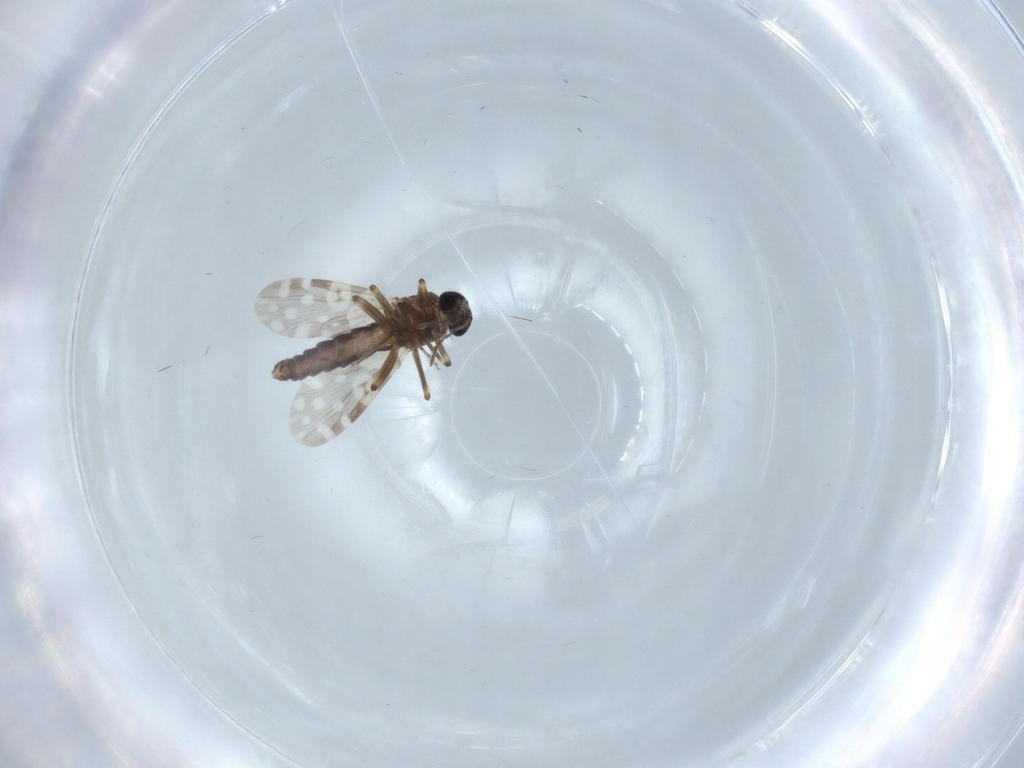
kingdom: Animalia
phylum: Arthropoda
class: Insecta
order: Diptera
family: Chironomidae
